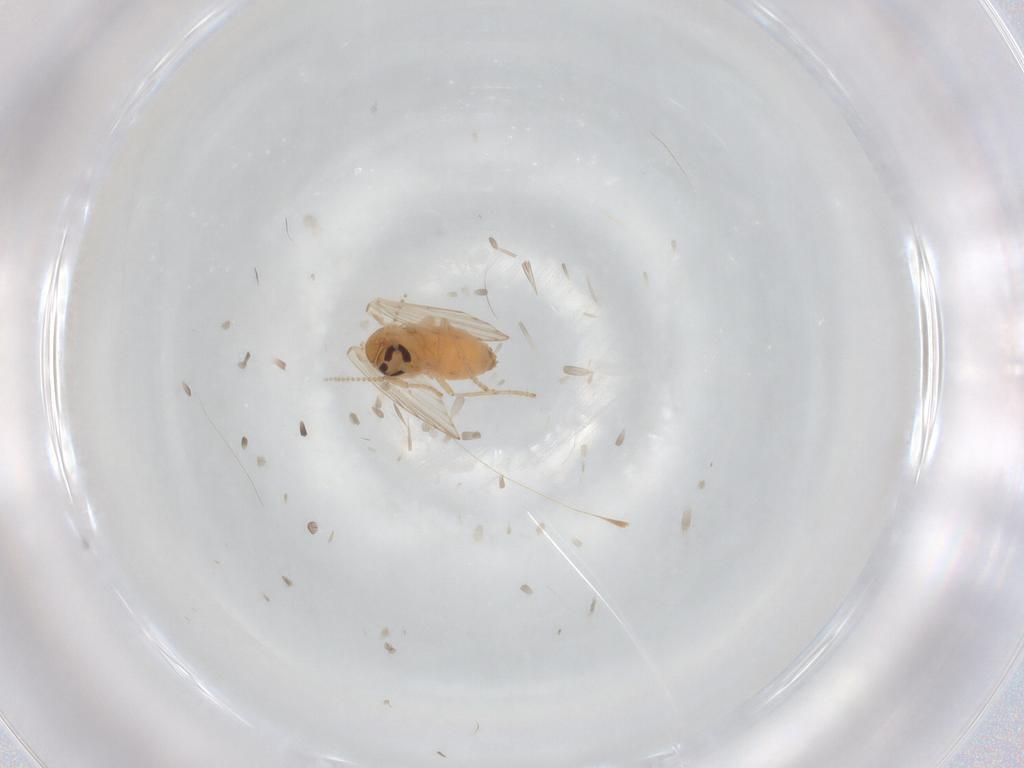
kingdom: Animalia
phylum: Arthropoda
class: Insecta
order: Diptera
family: Psychodidae
